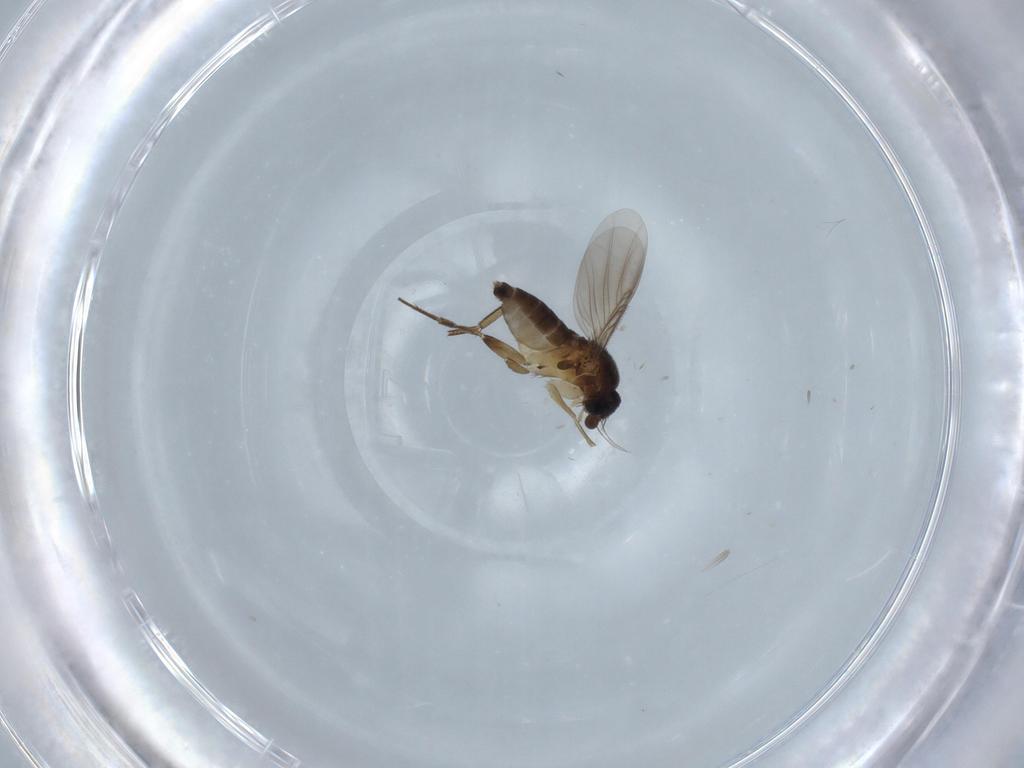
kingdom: Animalia
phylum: Arthropoda
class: Insecta
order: Diptera
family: Phoridae
